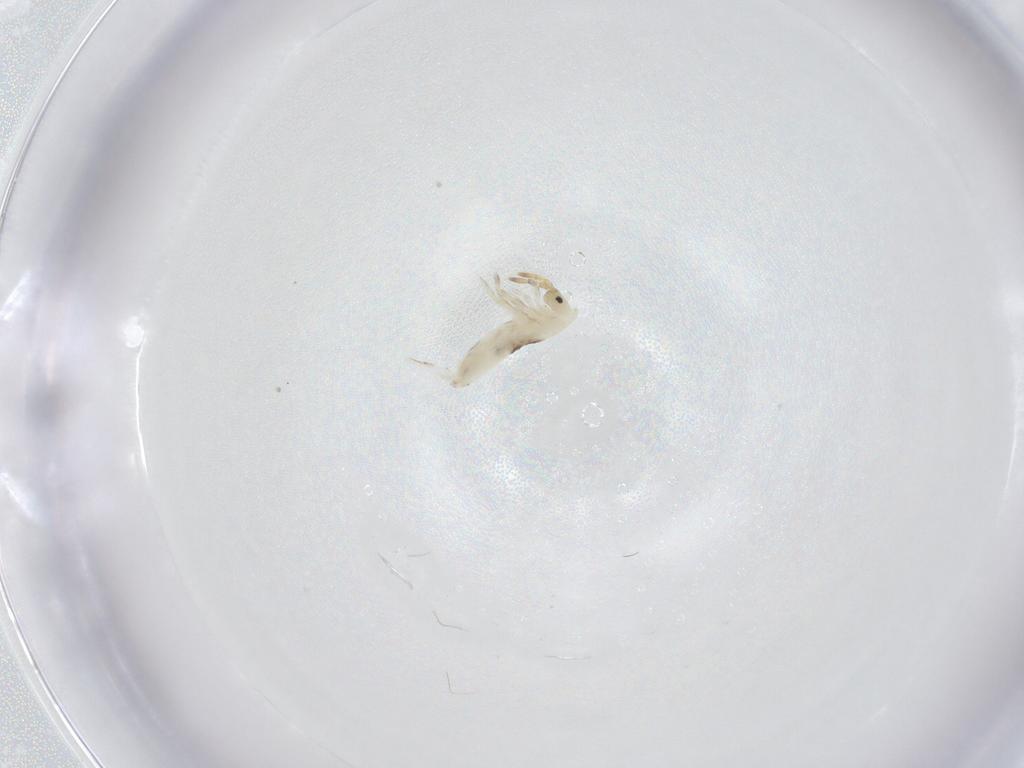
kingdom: Animalia
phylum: Arthropoda
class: Collembola
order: Entomobryomorpha
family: Entomobryidae
